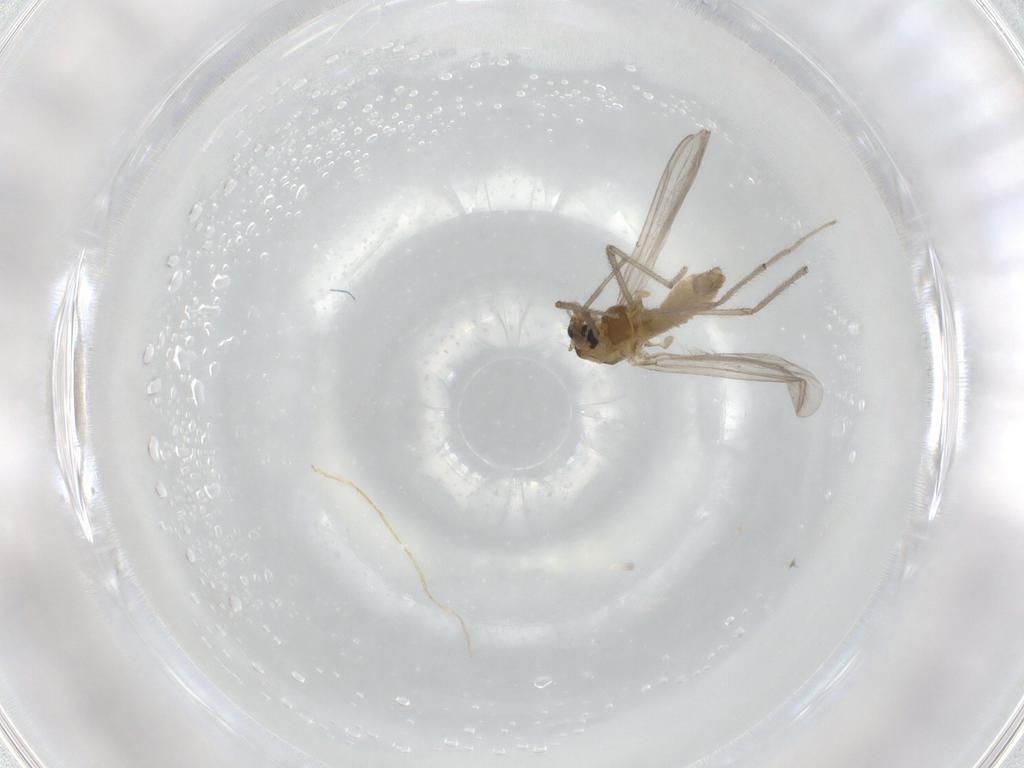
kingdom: Animalia
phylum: Arthropoda
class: Insecta
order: Diptera
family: Chironomidae
